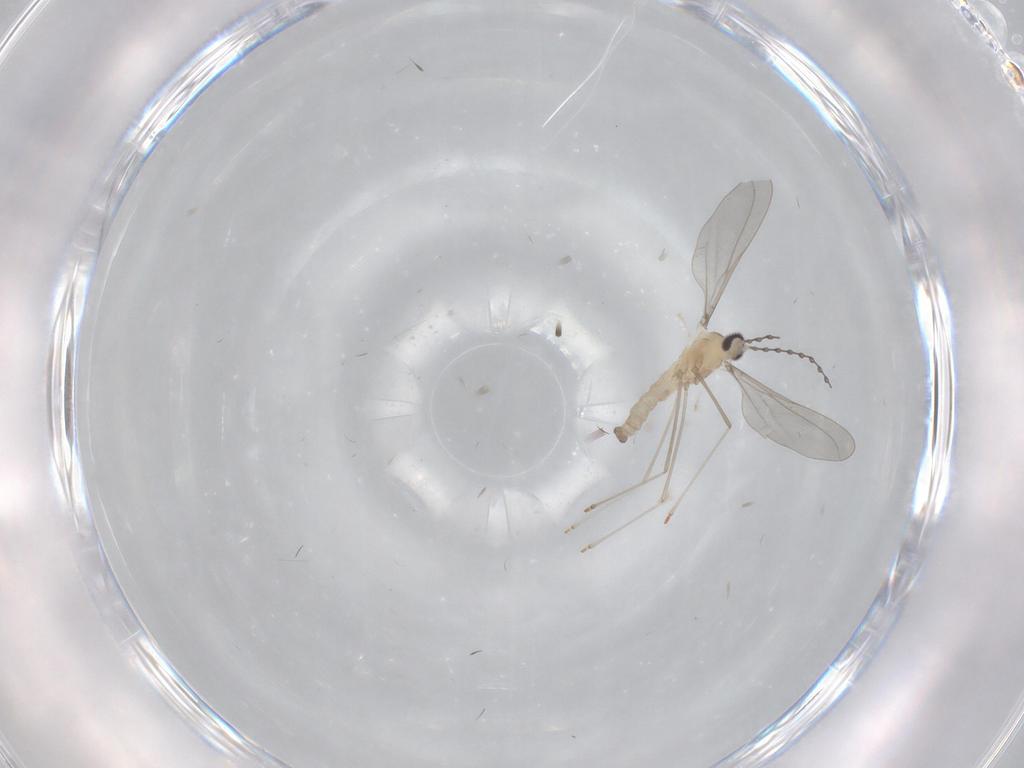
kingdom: Animalia
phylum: Arthropoda
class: Insecta
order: Diptera
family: Cecidomyiidae
